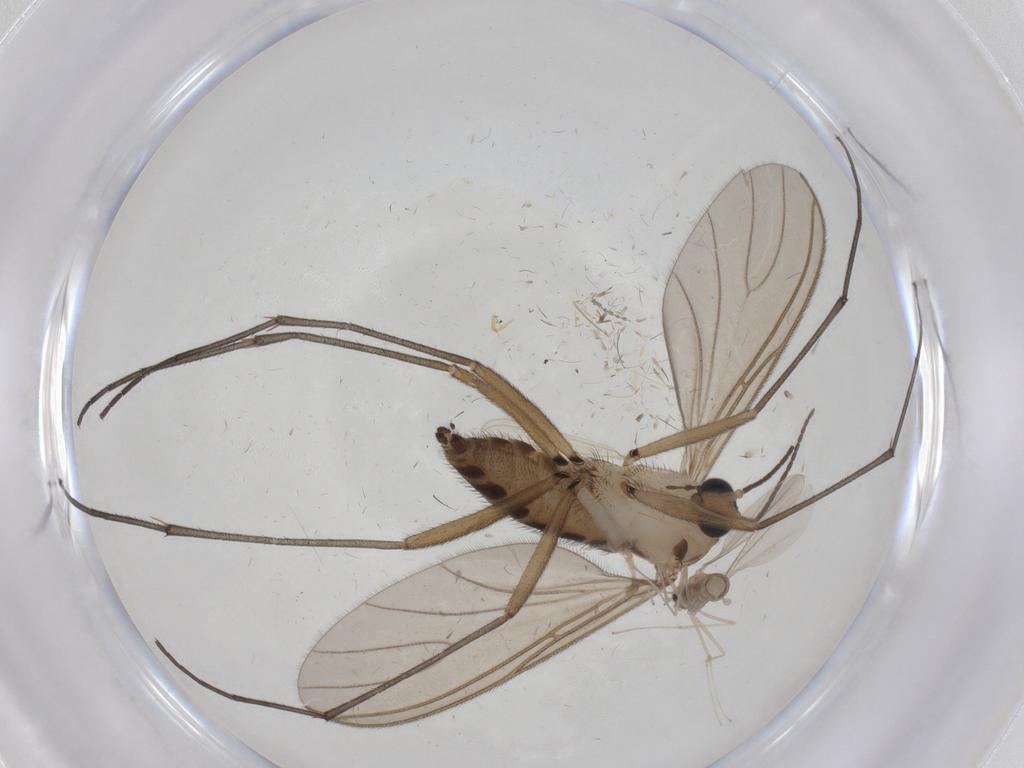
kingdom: Animalia
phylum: Arthropoda
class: Insecta
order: Diptera
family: Sciaridae
